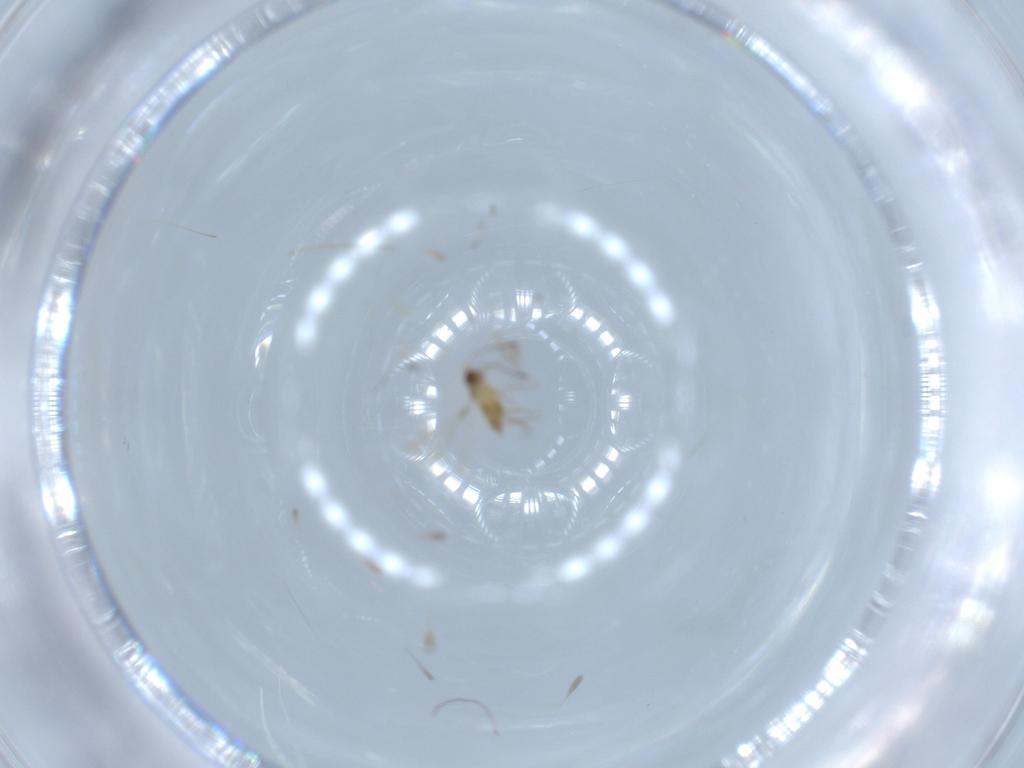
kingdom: Animalia
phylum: Arthropoda
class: Insecta
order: Hymenoptera
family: Mymaridae
